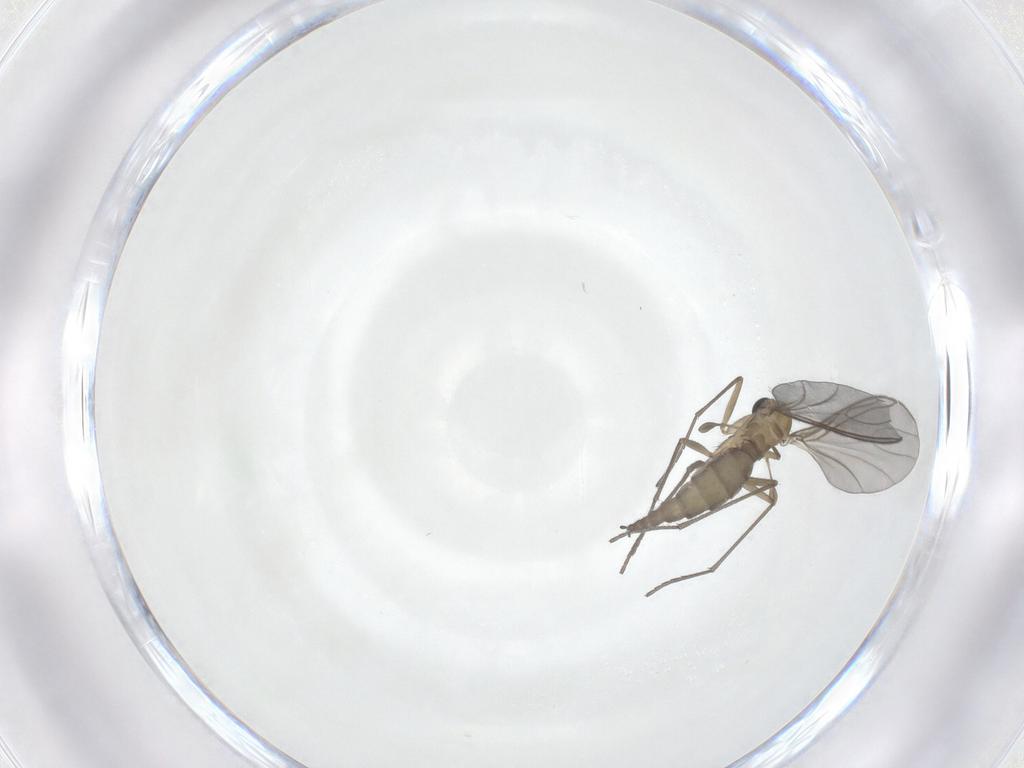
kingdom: Animalia
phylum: Arthropoda
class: Insecta
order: Diptera
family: Sciaridae
